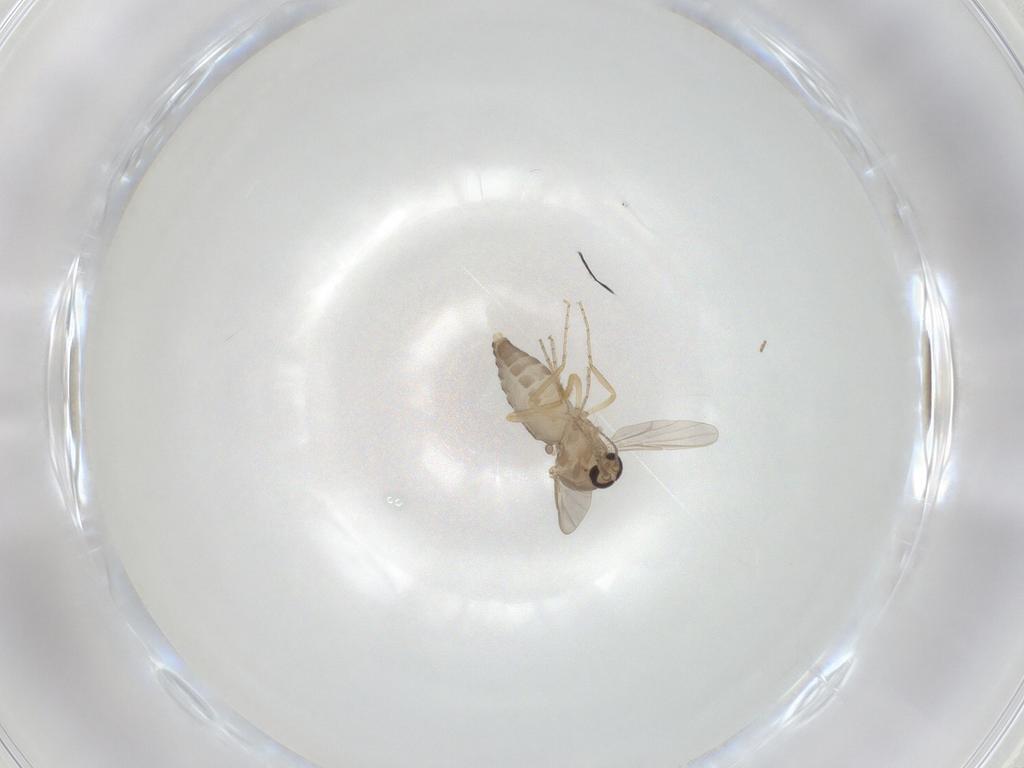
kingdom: Animalia
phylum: Arthropoda
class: Insecta
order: Diptera
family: Ceratopogonidae
